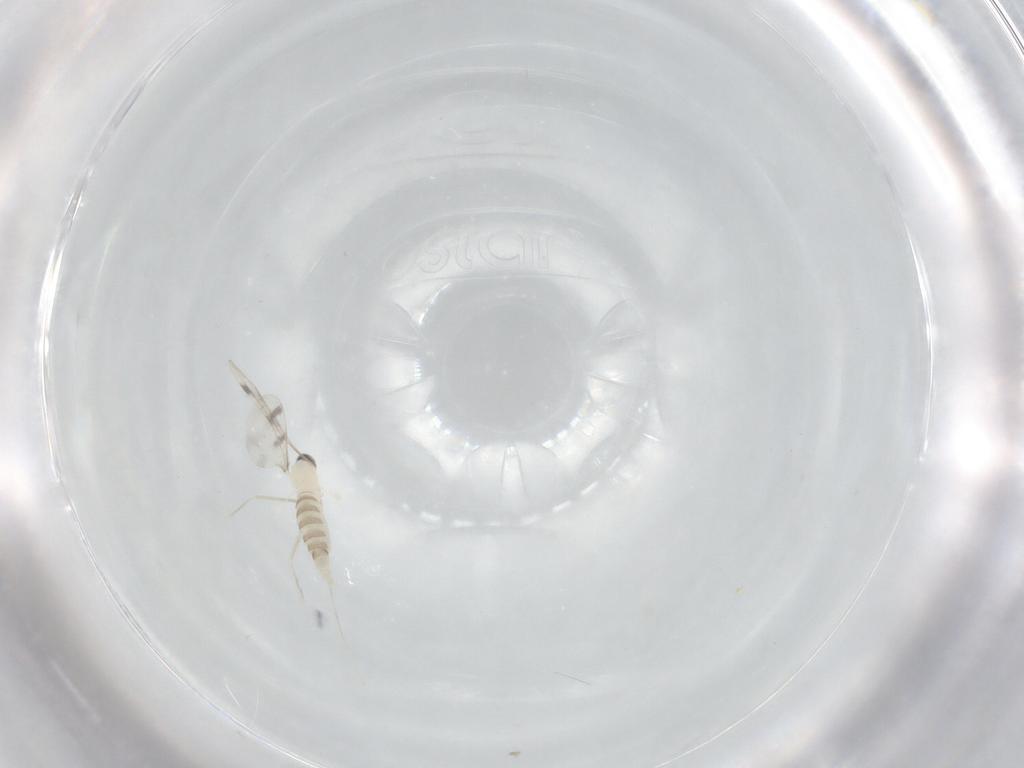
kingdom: Animalia
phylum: Arthropoda
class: Insecta
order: Diptera
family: Cecidomyiidae
